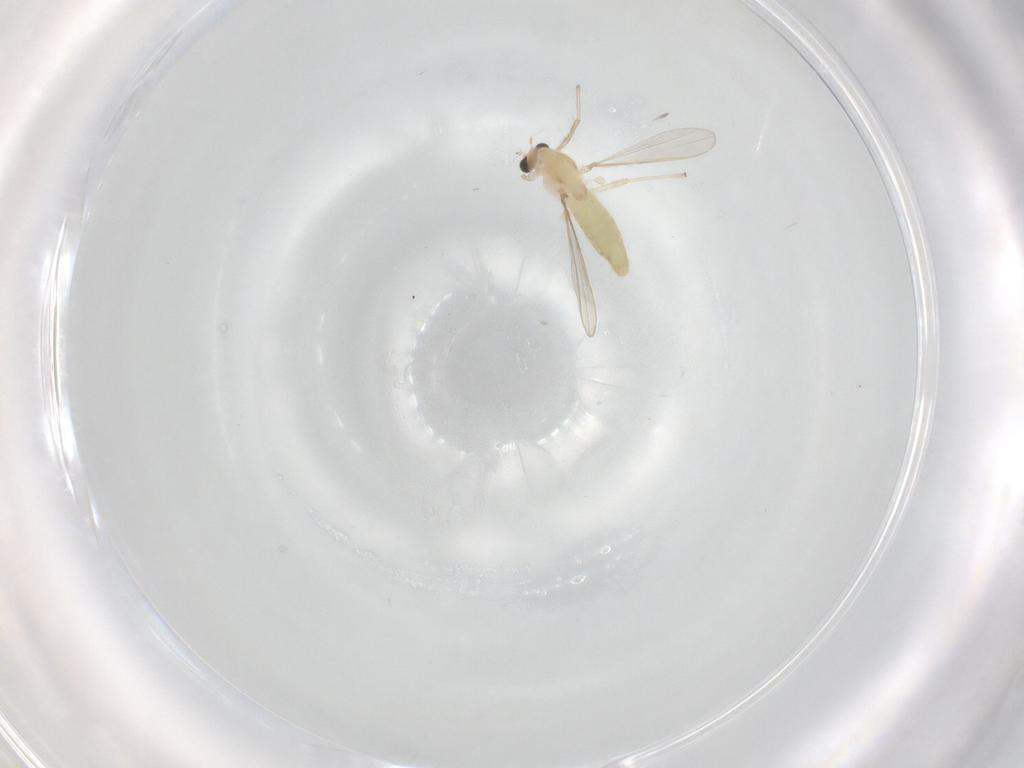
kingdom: Animalia
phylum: Arthropoda
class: Insecta
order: Diptera
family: Chironomidae
